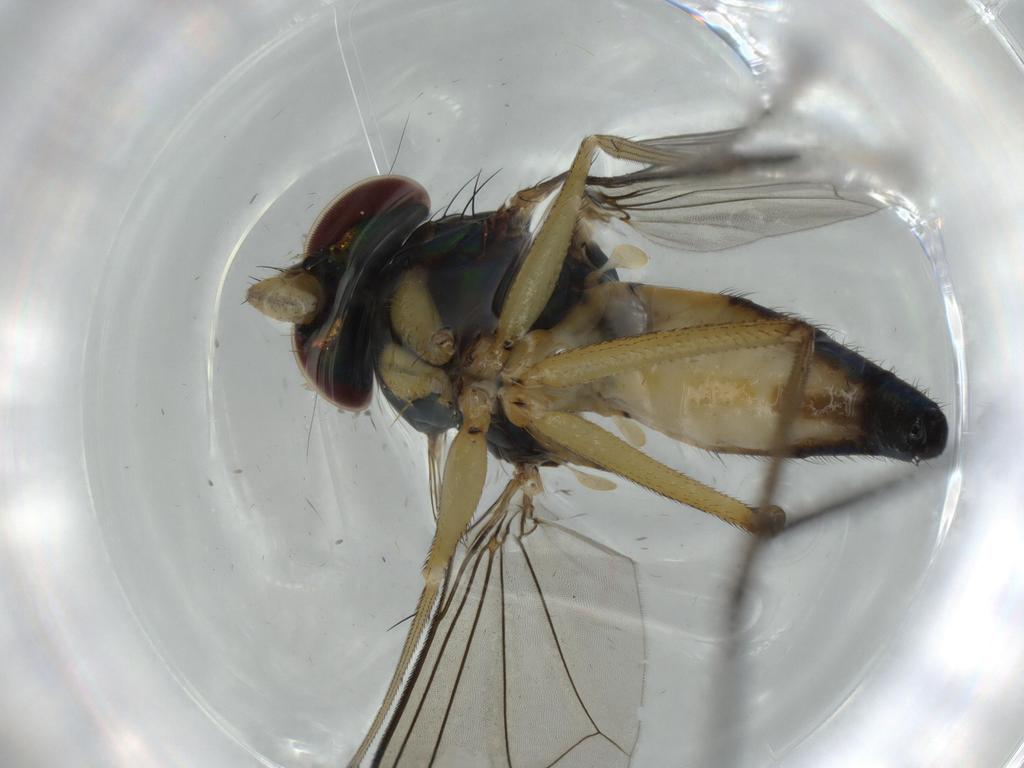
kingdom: Animalia
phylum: Arthropoda
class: Insecta
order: Diptera
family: Dolichopodidae
